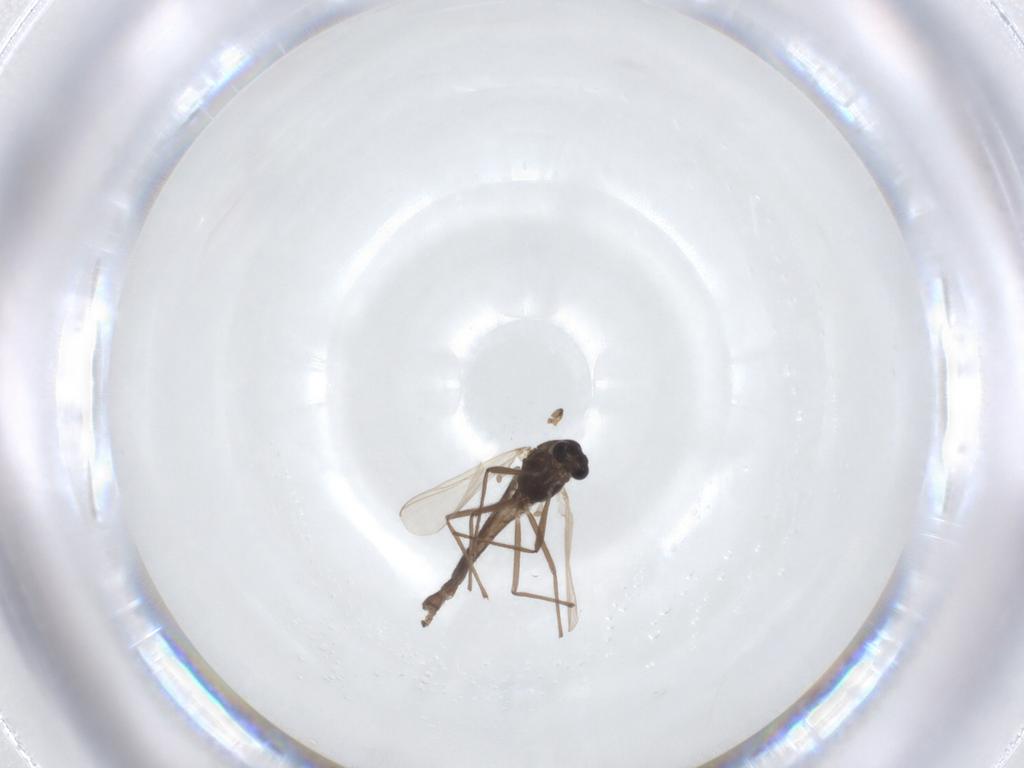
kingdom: Animalia
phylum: Arthropoda
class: Insecta
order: Diptera
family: Chironomidae
